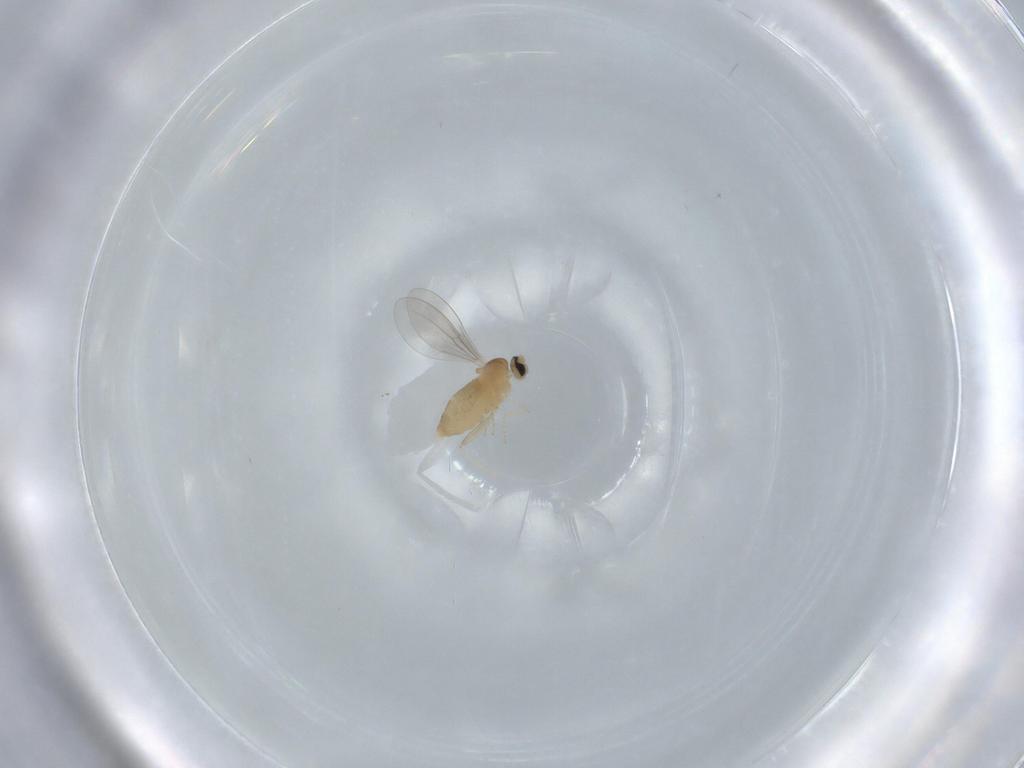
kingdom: Animalia
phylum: Arthropoda
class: Insecta
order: Diptera
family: Cecidomyiidae
